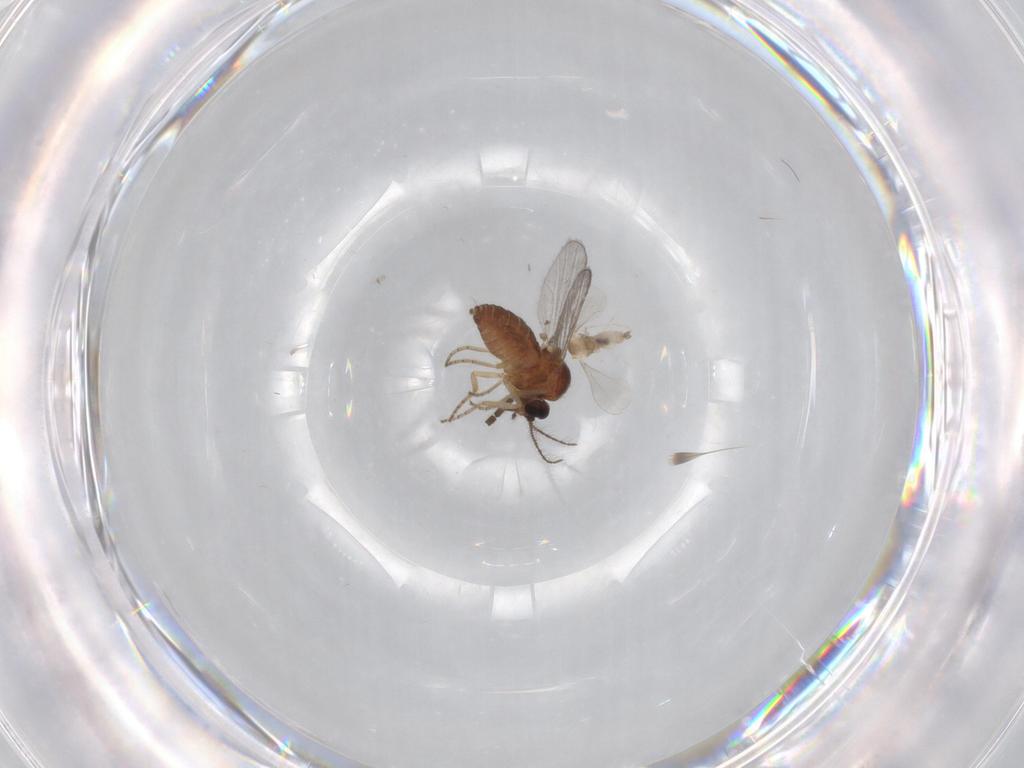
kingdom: Animalia
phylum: Arthropoda
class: Insecta
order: Diptera
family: Cecidomyiidae
